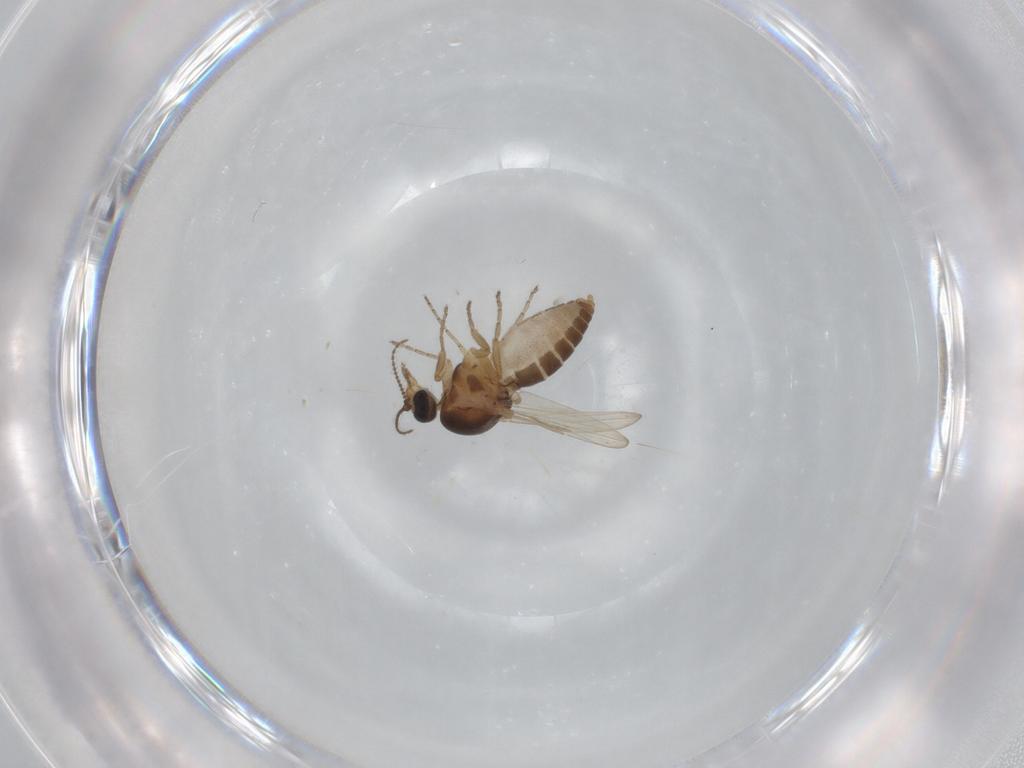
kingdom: Animalia
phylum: Arthropoda
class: Insecta
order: Diptera
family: Ceratopogonidae
